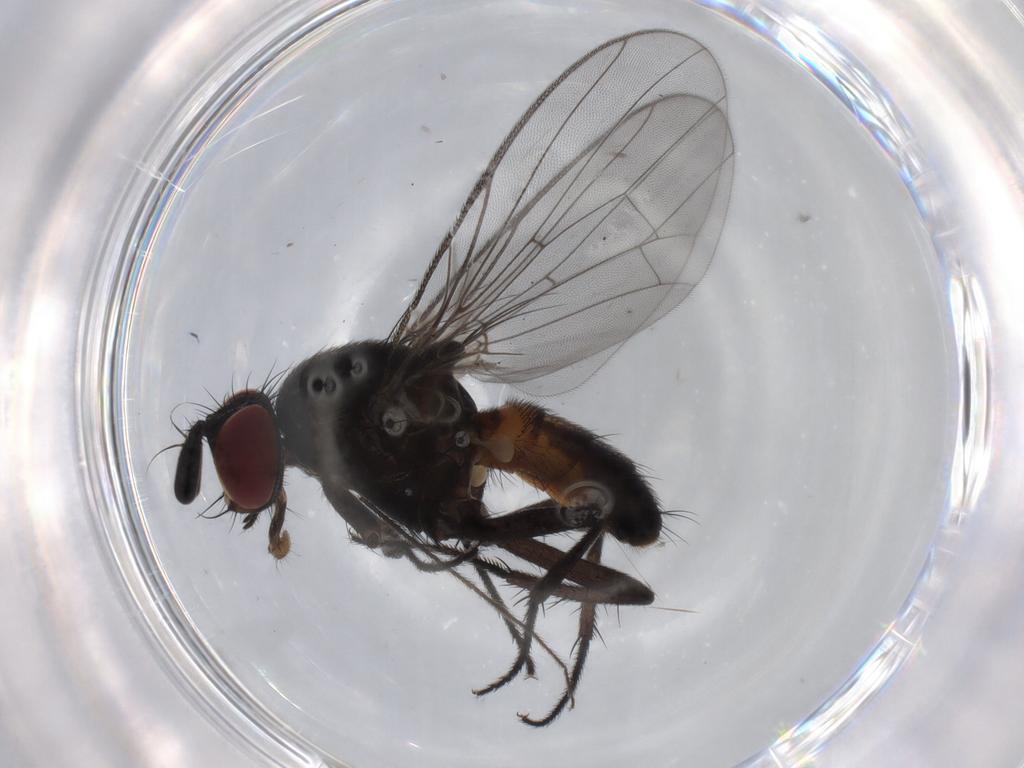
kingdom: Animalia
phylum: Arthropoda
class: Insecta
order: Diptera
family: Fannia
